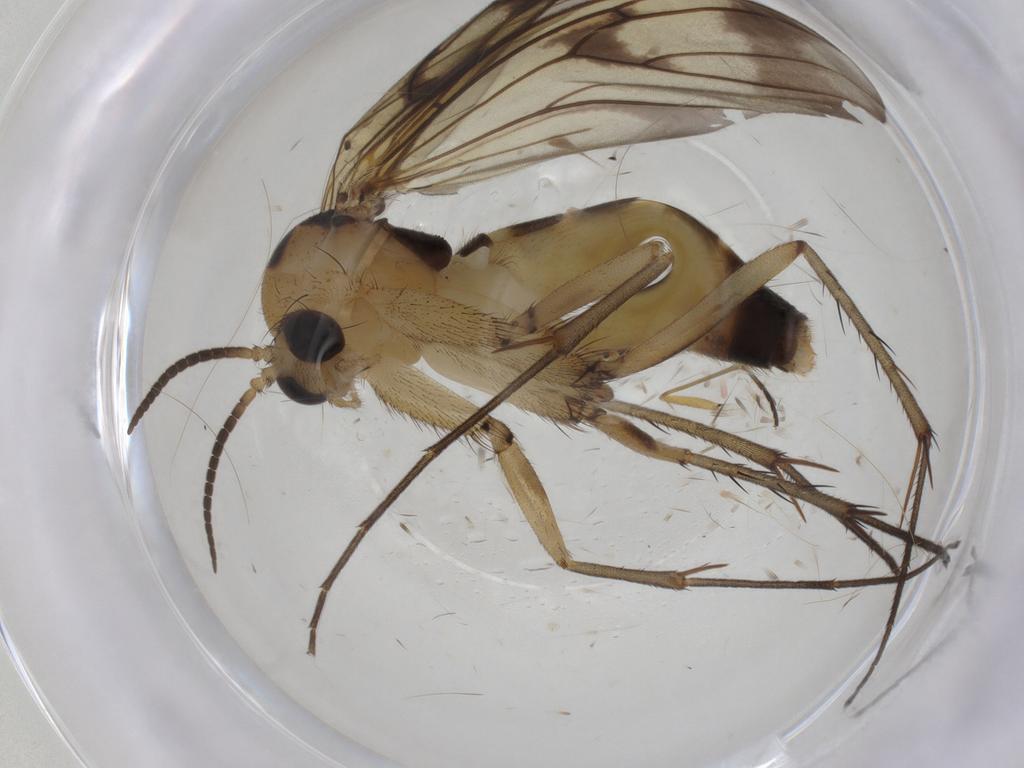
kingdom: Animalia
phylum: Arthropoda
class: Insecta
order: Diptera
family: Mycetophilidae
